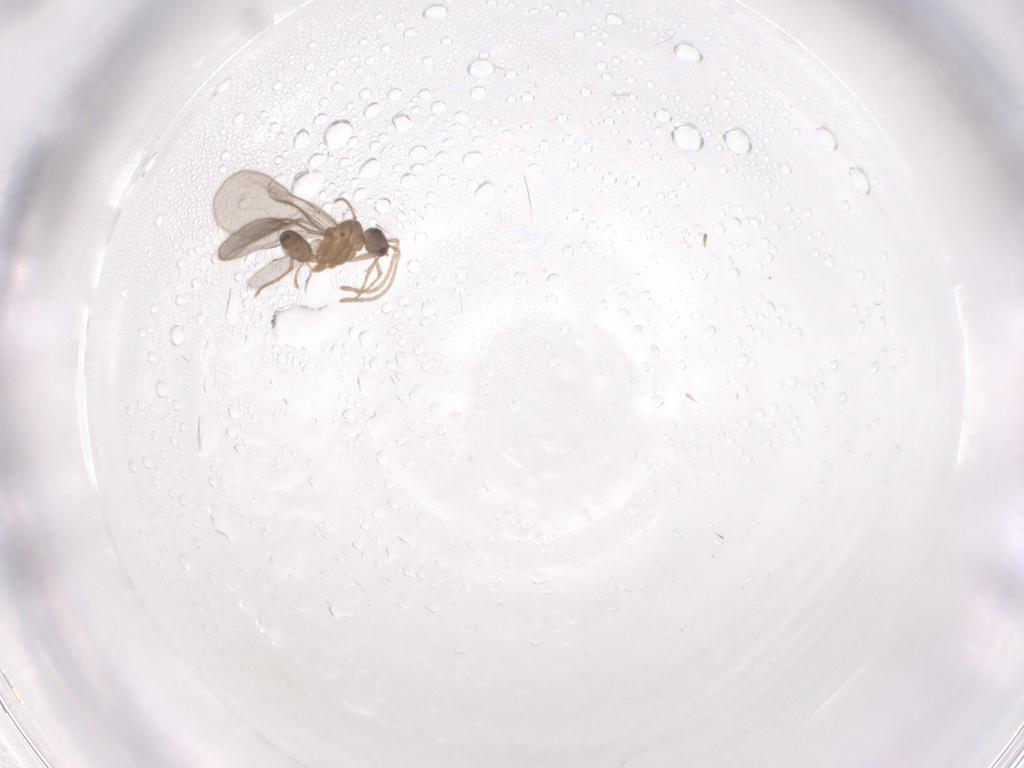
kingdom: Animalia
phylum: Arthropoda
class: Insecta
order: Hymenoptera
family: Formicidae
